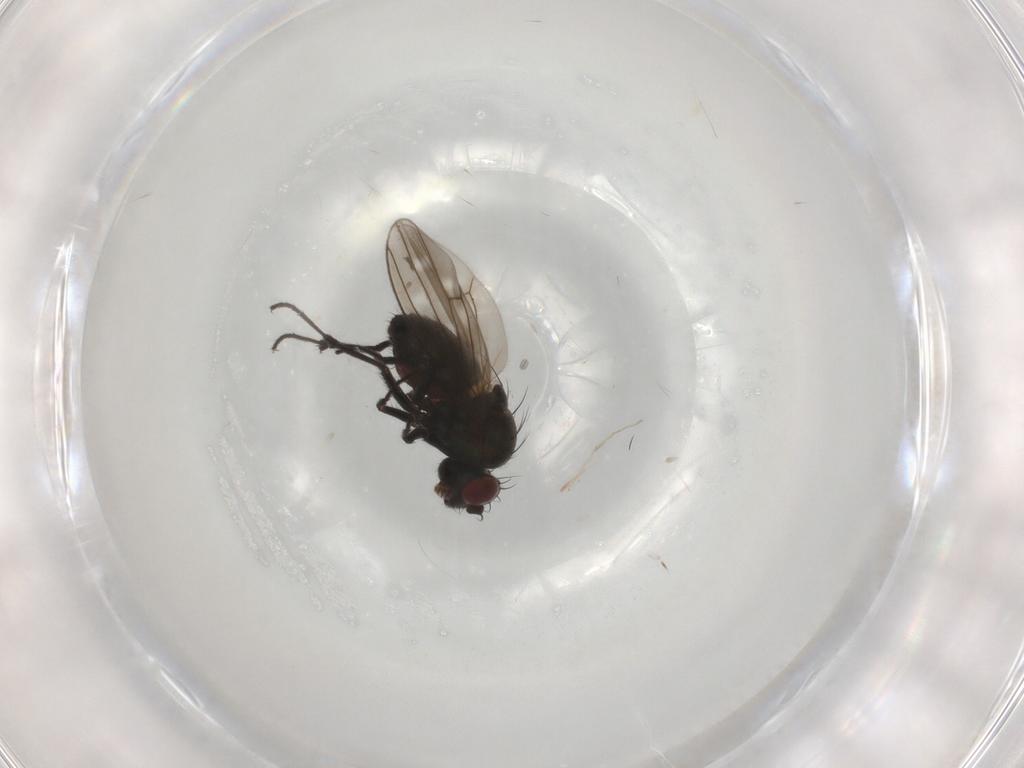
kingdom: Animalia
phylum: Arthropoda
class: Insecta
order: Diptera
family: Ephydridae
